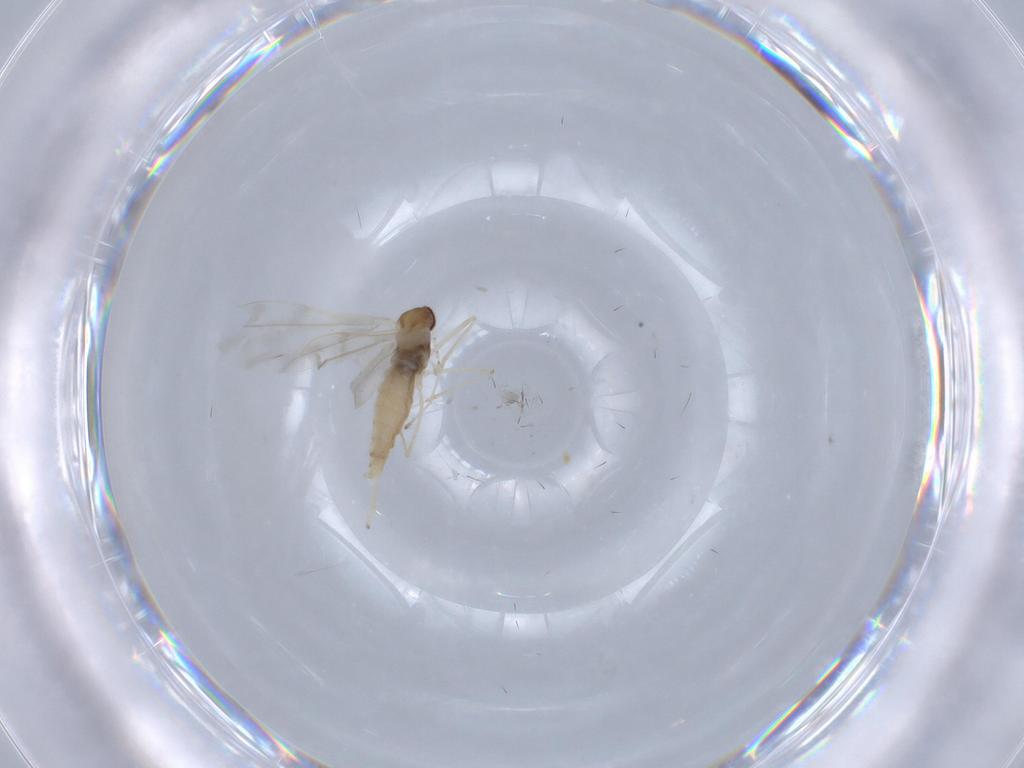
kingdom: Animalia
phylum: Arthropoda
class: Insecta
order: Diptera
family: Cecidomyiidae
